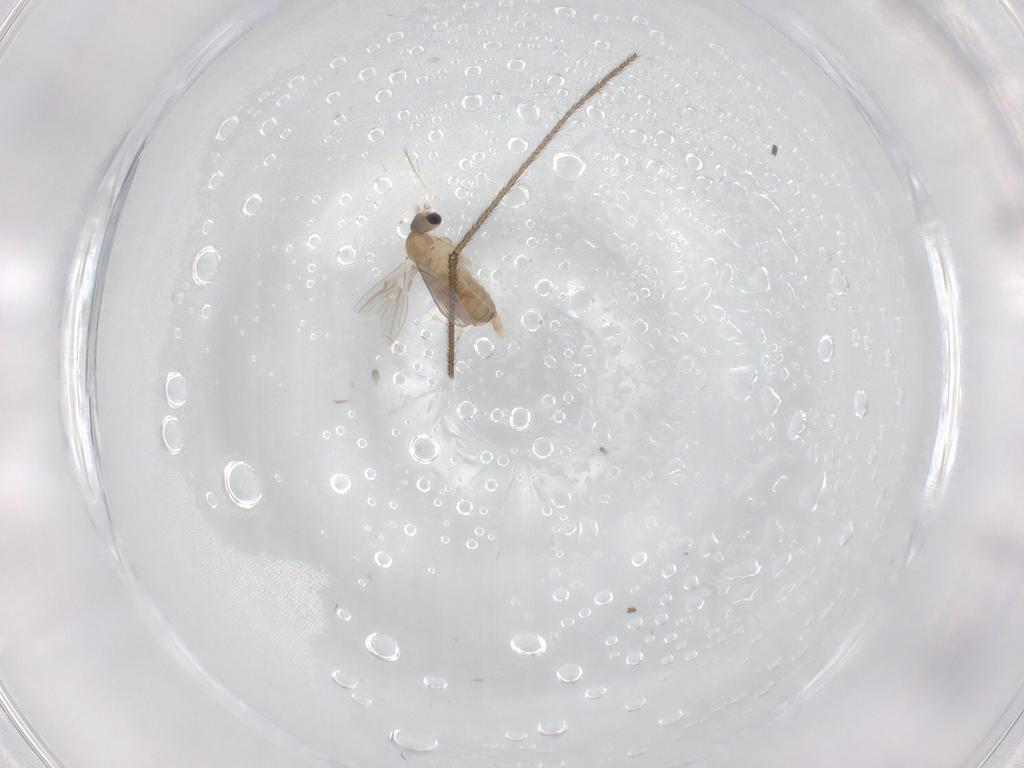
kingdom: Animalia
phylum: Arthropoda
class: Insecta
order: Diptera
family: Limoniidae
